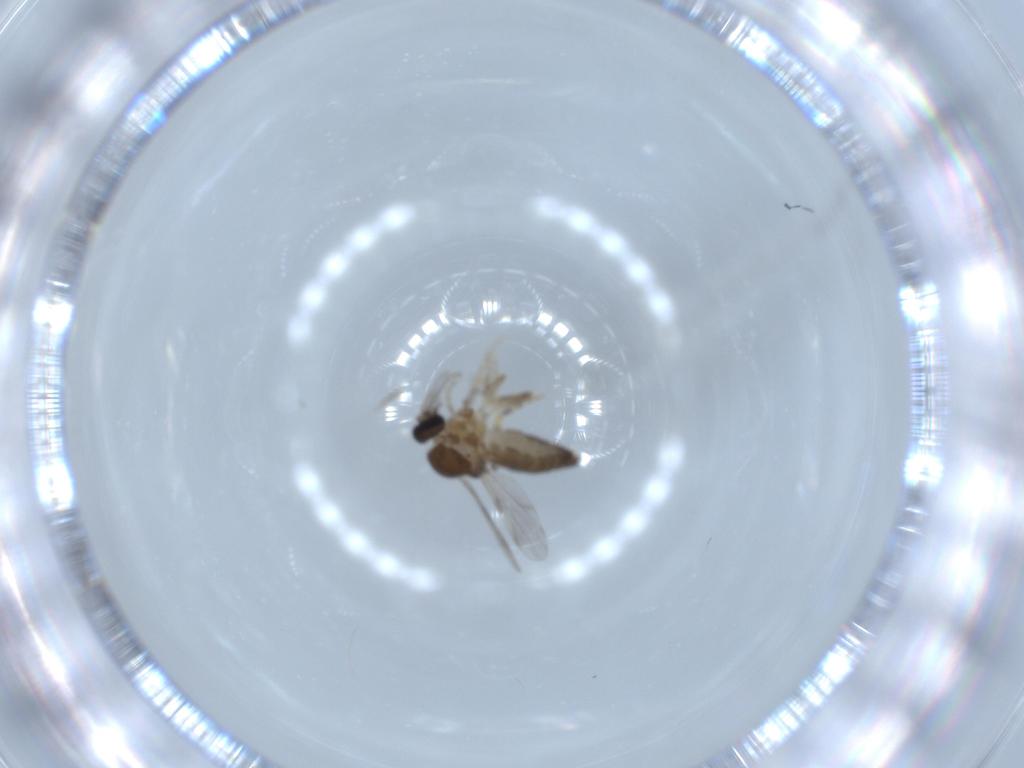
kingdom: Animalia
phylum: Arthropoda
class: Insecta
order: Diptera
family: Ceratopogonidae
